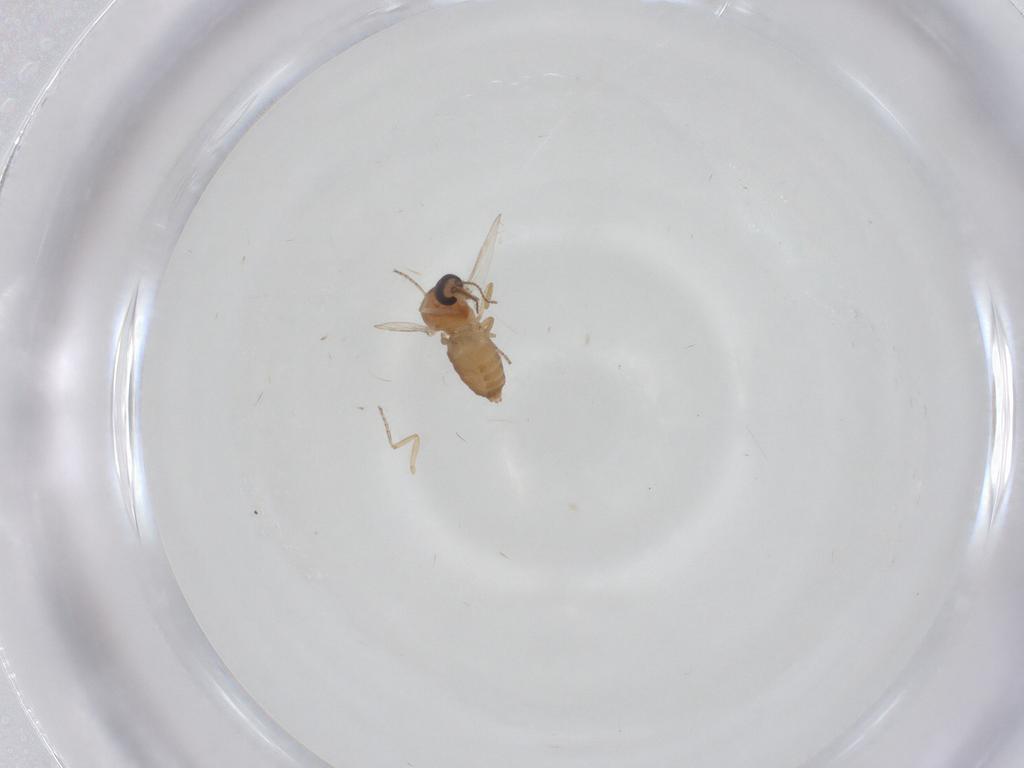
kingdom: Animalia
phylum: Arthropoda
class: Insecta
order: Diptera
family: Ceratopogonidae
